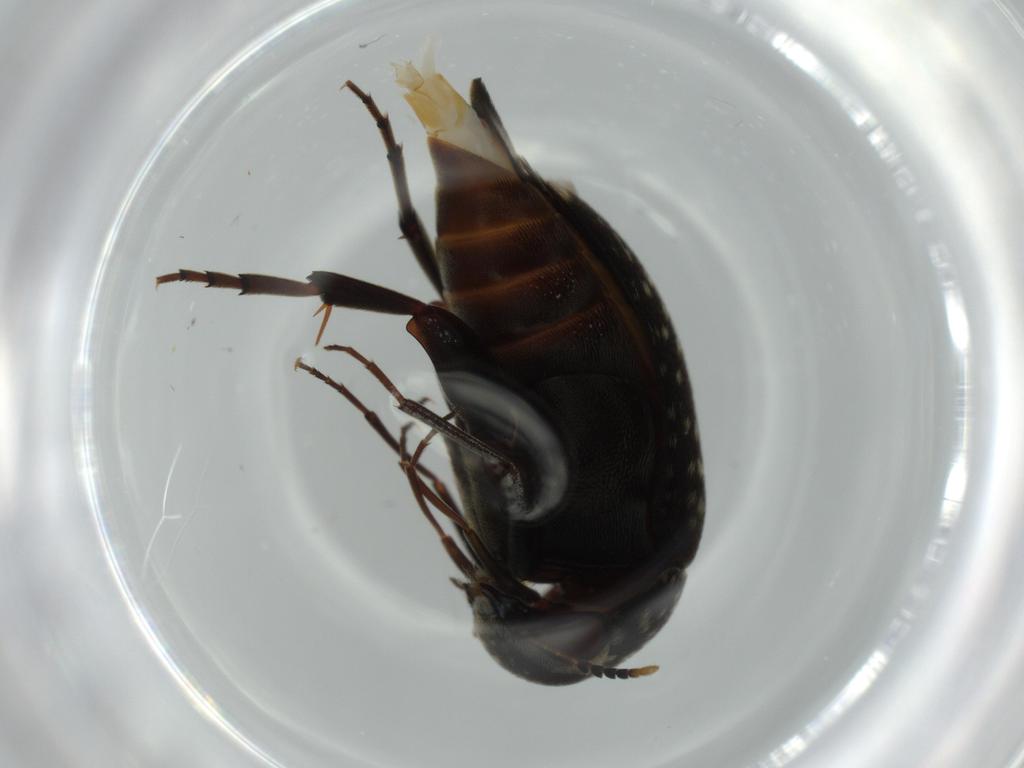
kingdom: Animalia
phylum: Arthropoda
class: Insecta
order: Coleoptera
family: Mordellidae
